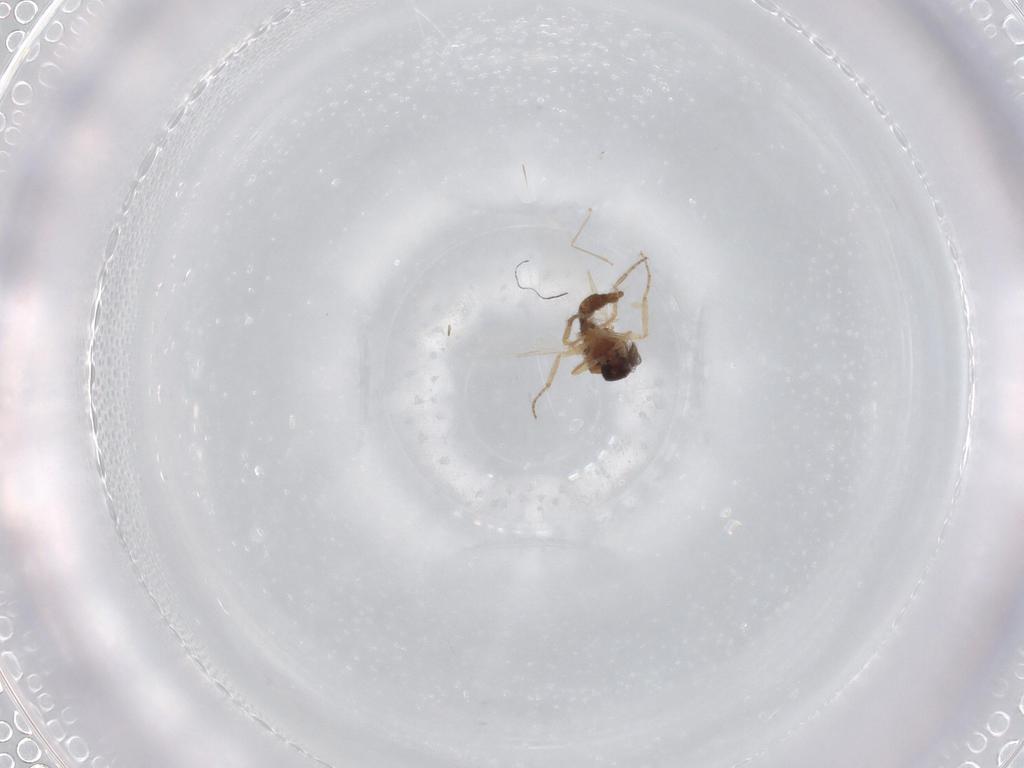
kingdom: Animalia
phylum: Arthropoda
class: Insecta
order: Diptera
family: Ceratopogonidae
